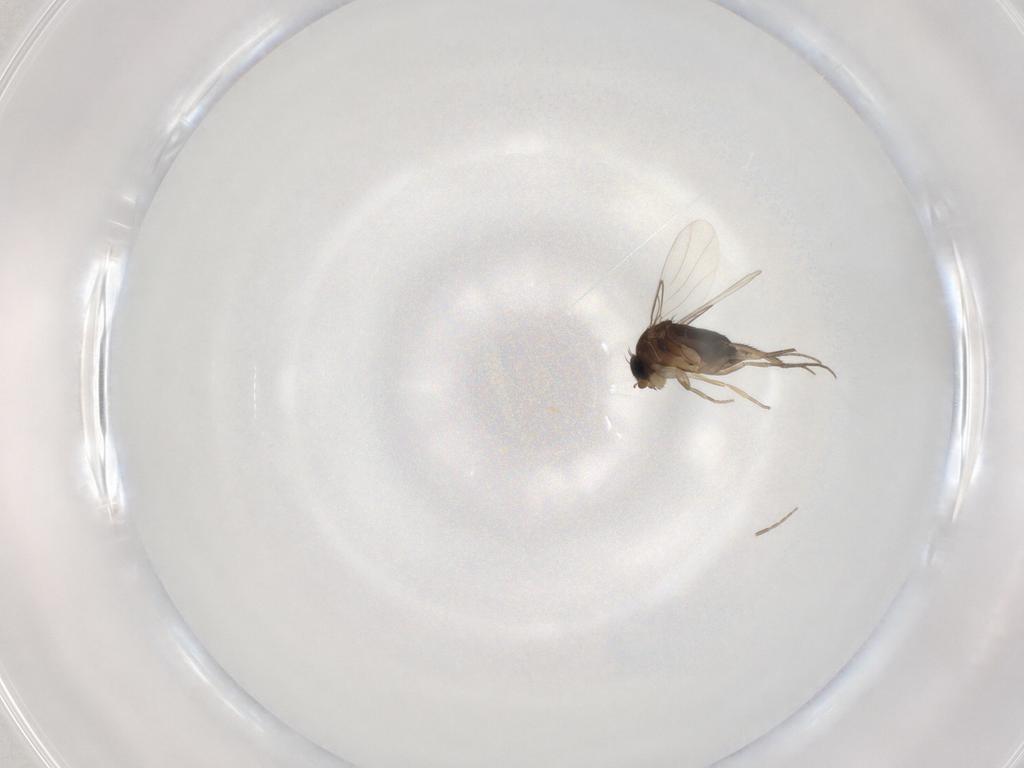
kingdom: Animalia
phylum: Arthropoda
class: Insecta
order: Diptera
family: Phoridae
